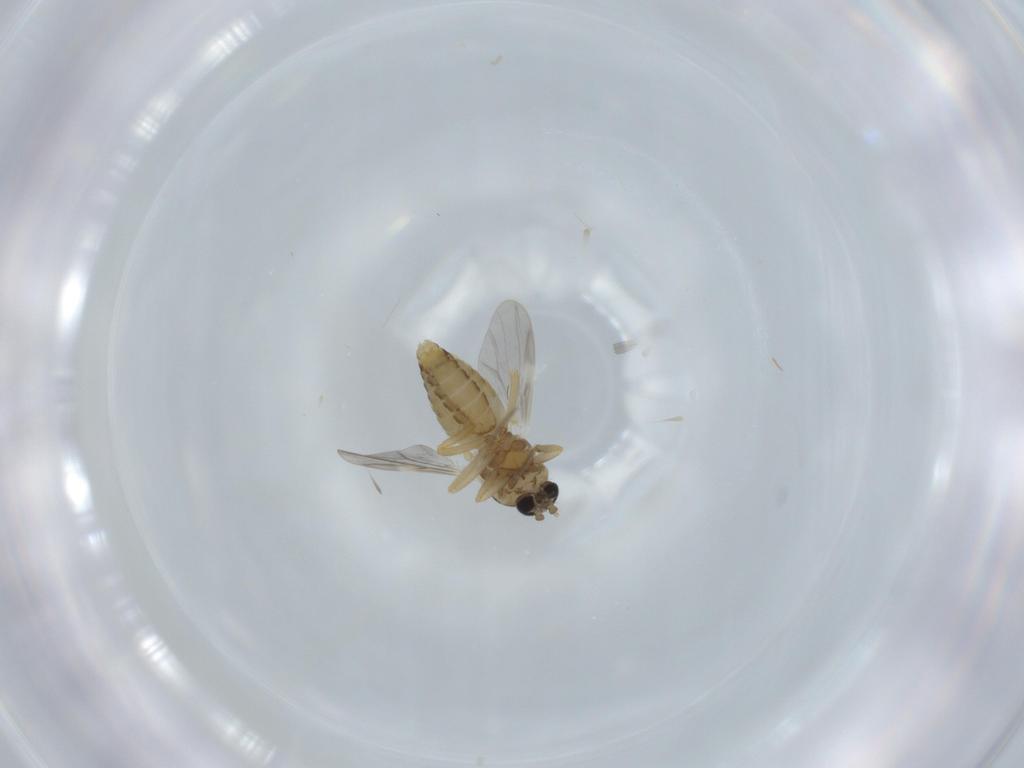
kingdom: Animalia
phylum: Arthropoda
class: Insecta
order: Diptera
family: Ceratopogonidae
